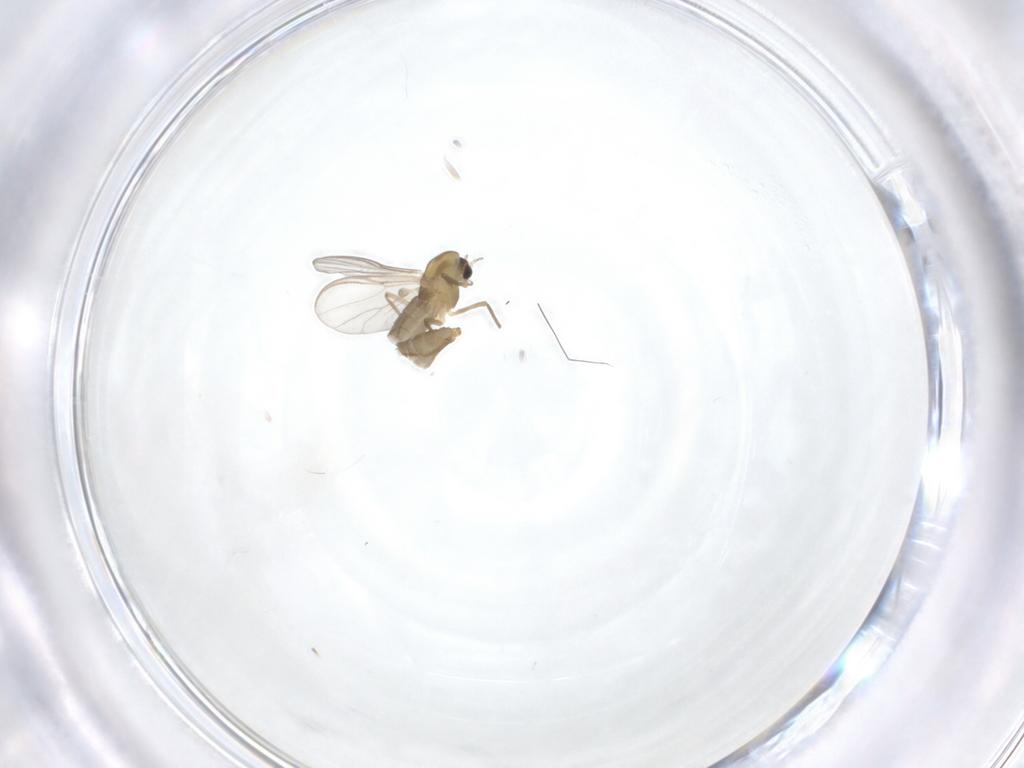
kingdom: Animalia
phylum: Arthropoda
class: Insecta
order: Diptera
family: Chironomidae
